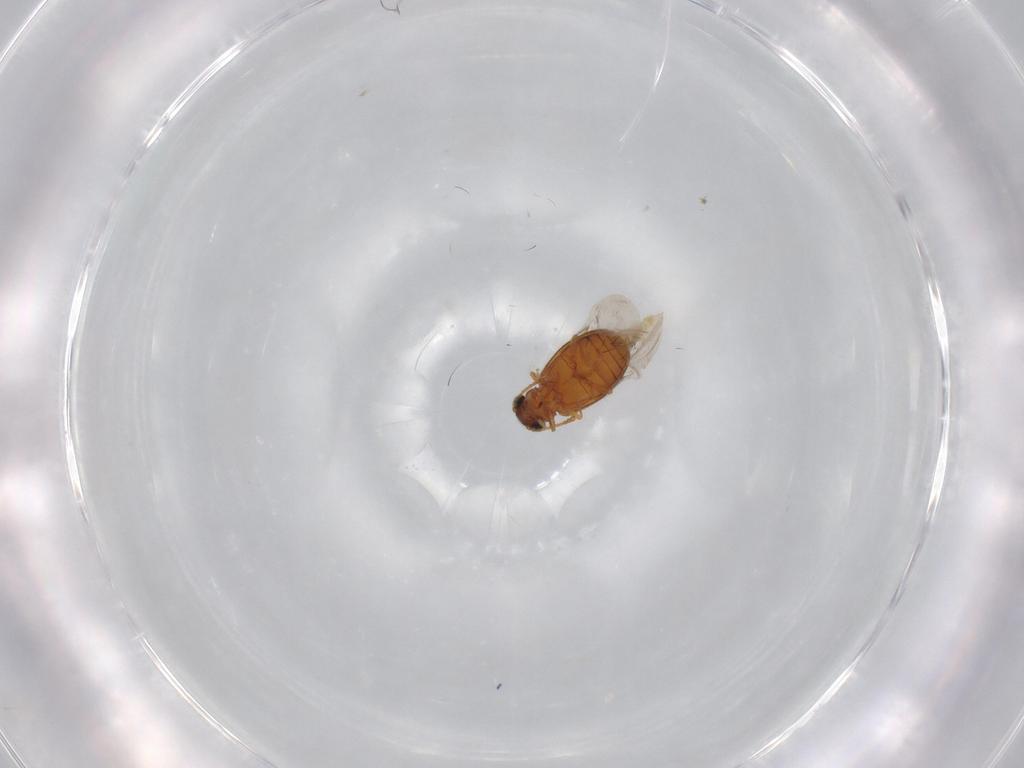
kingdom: Animalia
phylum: Arthropoda
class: Insecta
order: Coleoptera
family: Aderidae
